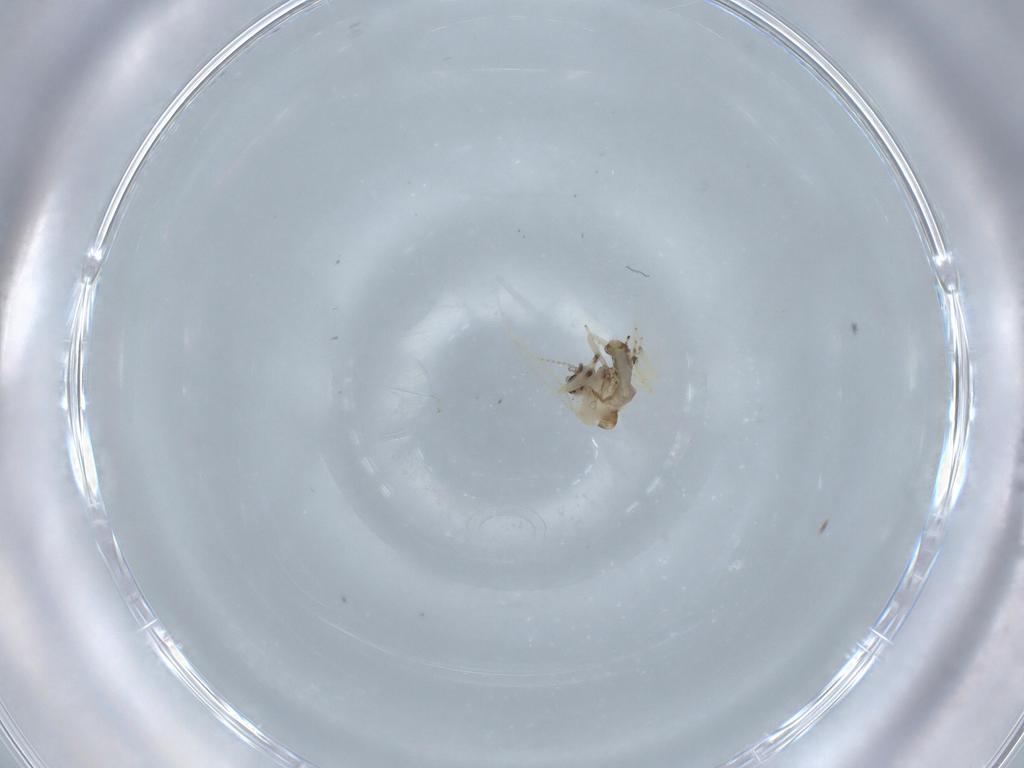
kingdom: Animalia
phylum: Arthropoda
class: Insecta
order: Diptera
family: Ceratopogonidae
